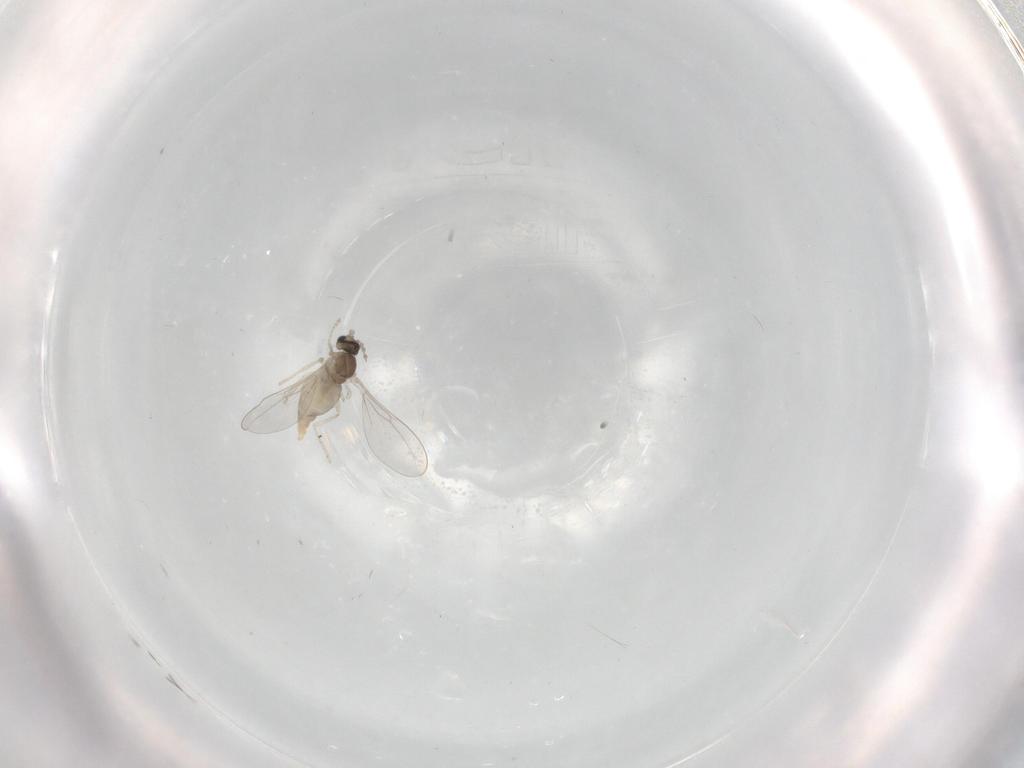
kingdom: Animalia
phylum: Arthropoda
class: Insecta
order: Diptera
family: Cecidomyiidae
